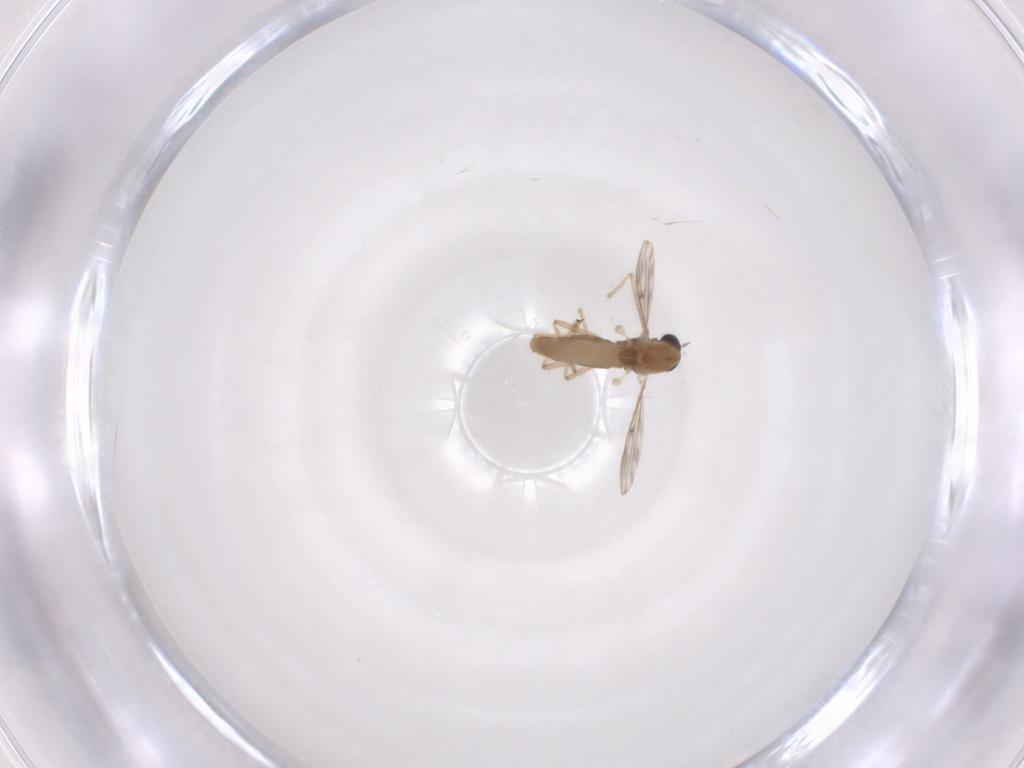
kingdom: Animalia
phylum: Arthropoda
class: Insecta
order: Diptera
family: Chironomidae
